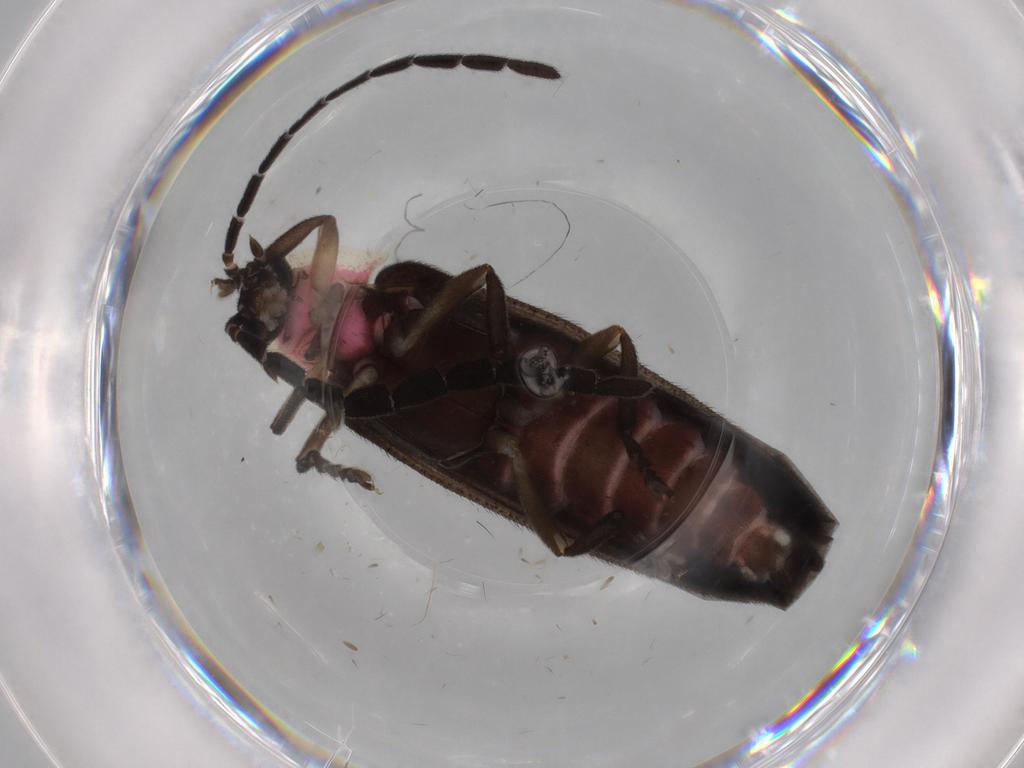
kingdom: Animalia
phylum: Arthropoda
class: Insecta
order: Coleoptera
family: Lampyridae
